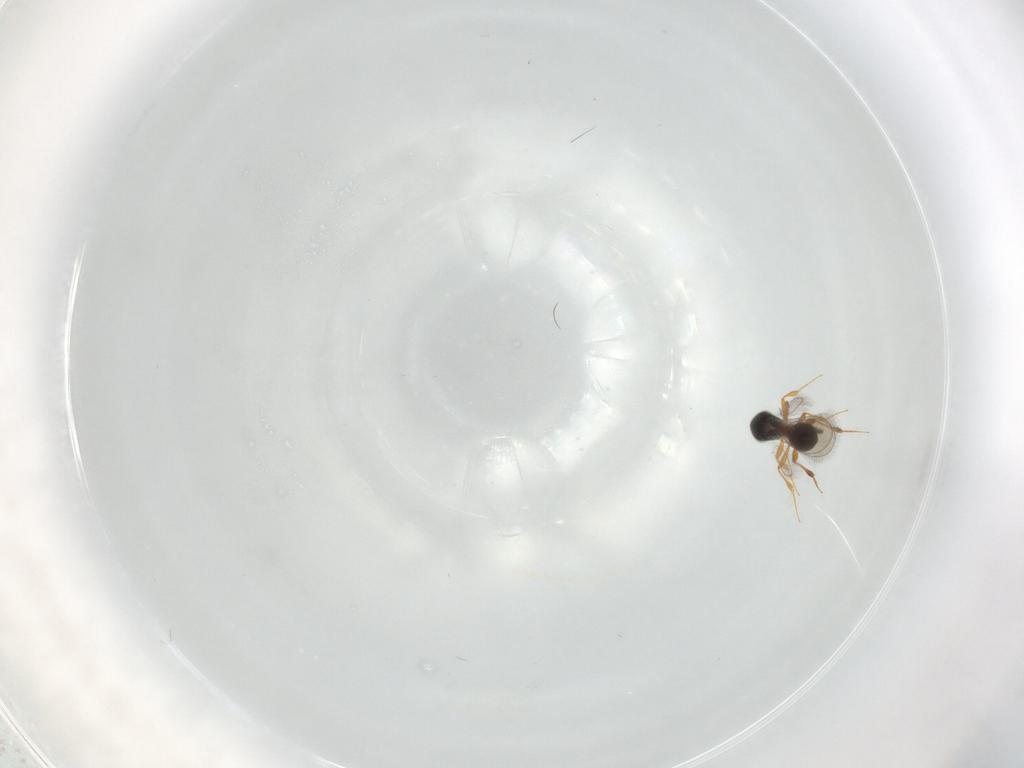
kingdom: Animalia
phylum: Arthropoda
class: Insecta
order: Hymenoptera
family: Platygastridae
